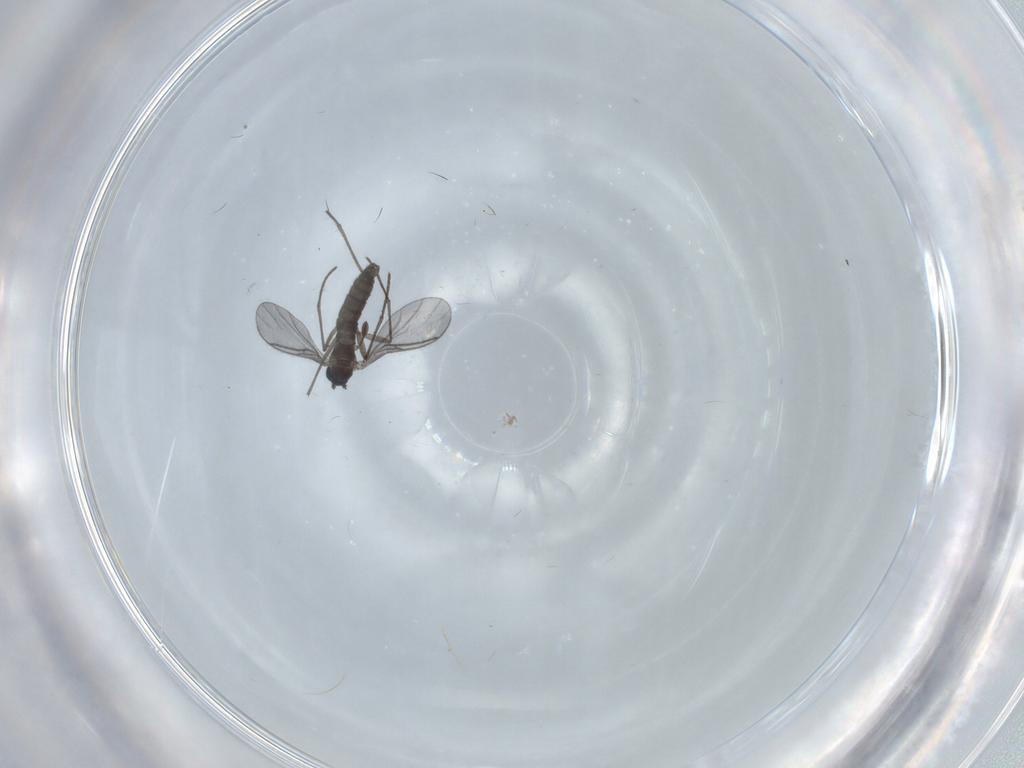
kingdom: Animalia
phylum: Arthropoda
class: Insecta
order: Diptera
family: Cecidomyiidae
